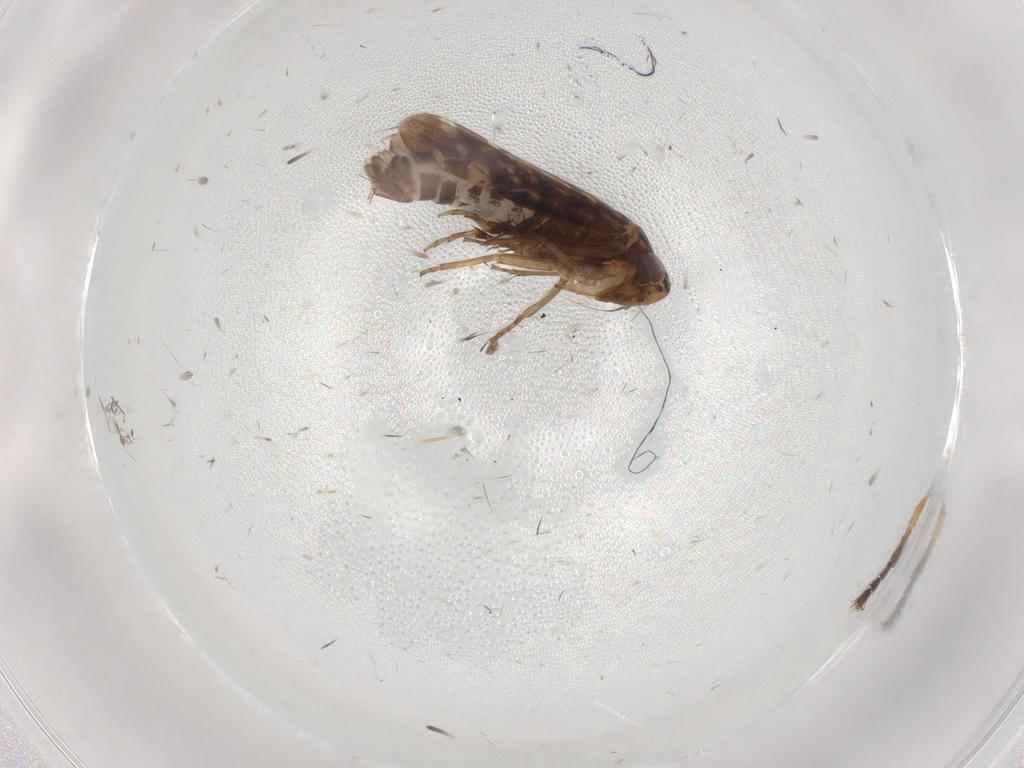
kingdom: Animalia
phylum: Arthropoda
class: Insecta
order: Hemiptera
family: Cicadellidae
